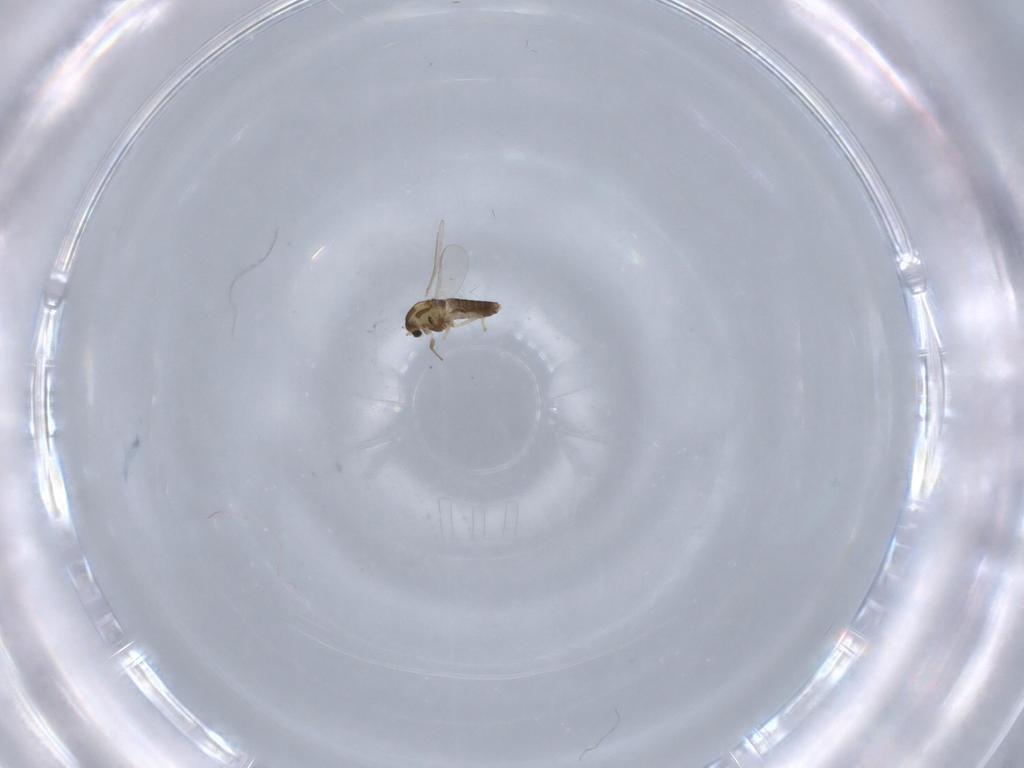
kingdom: Animalia
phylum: Arthropoda
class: Insecta
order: Diptera
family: Chironomidae
